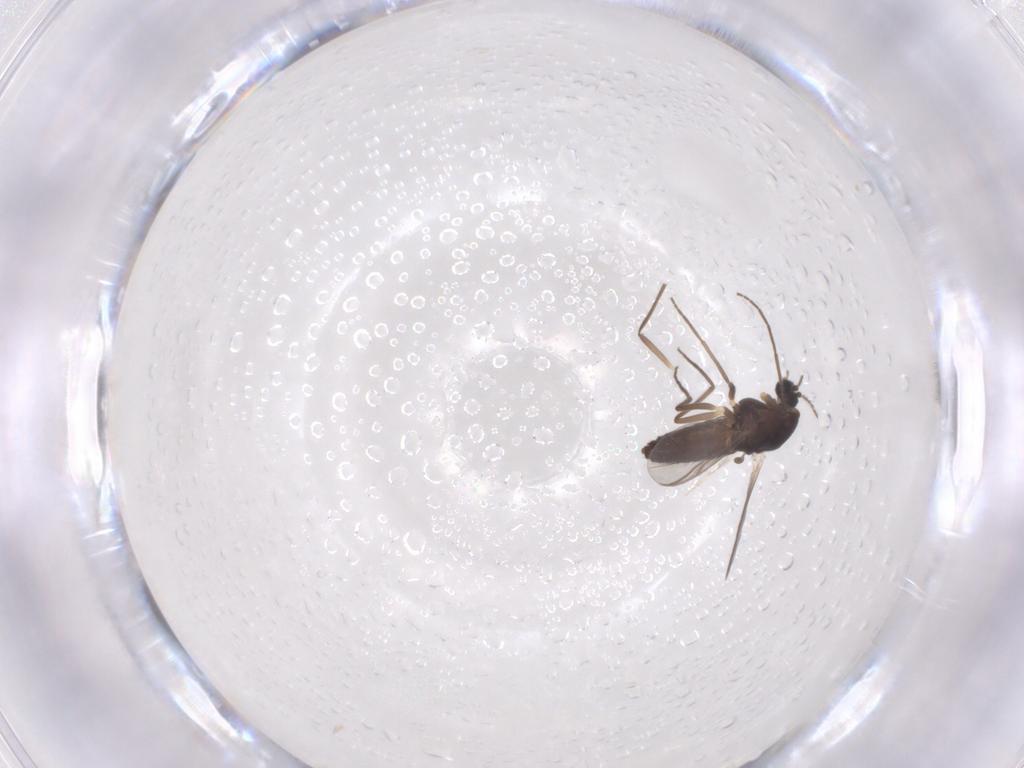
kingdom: Animalia
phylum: Arthropoda
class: Insecta
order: Diptera
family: Chironomidae
